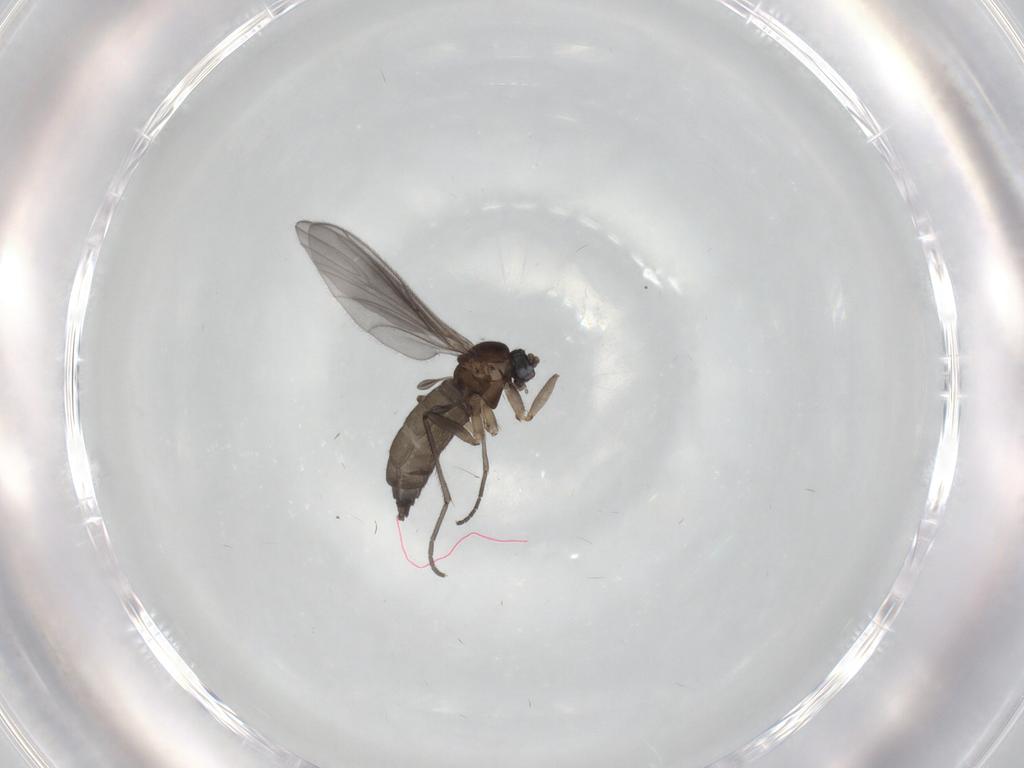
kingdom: Animalia
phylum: Arthropoda
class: Insecta
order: Diptera
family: Sciaridae
